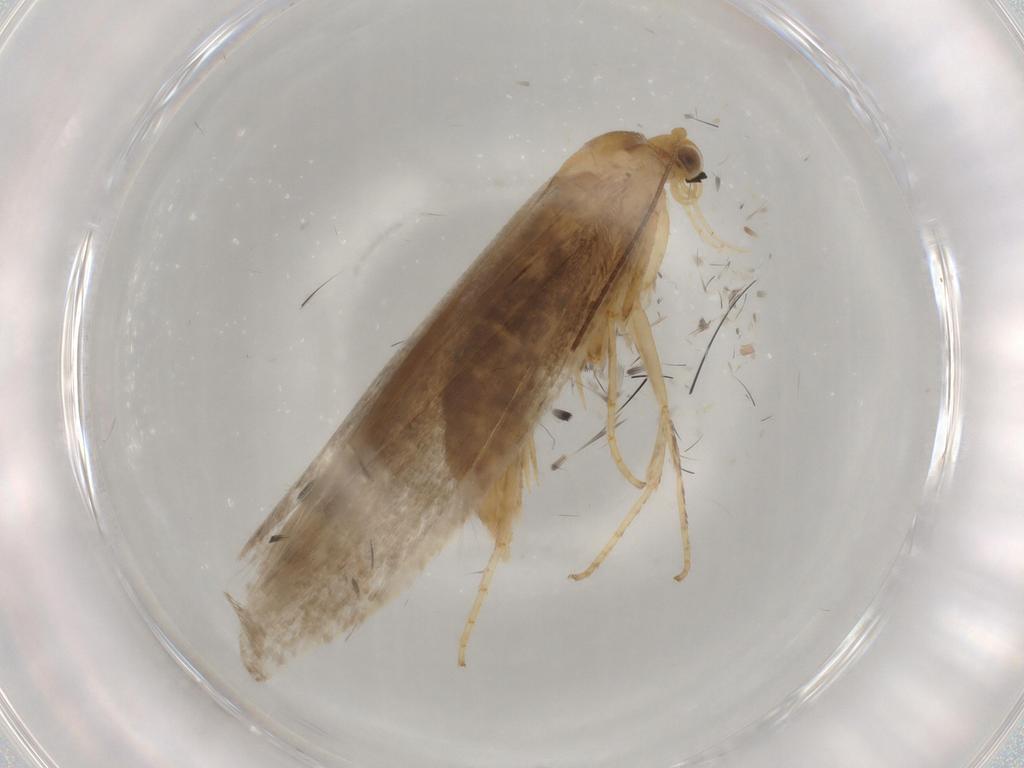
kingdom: Animalia
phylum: Arthropoda
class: Insecta
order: Lepidoptera
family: Argyresthiidae
